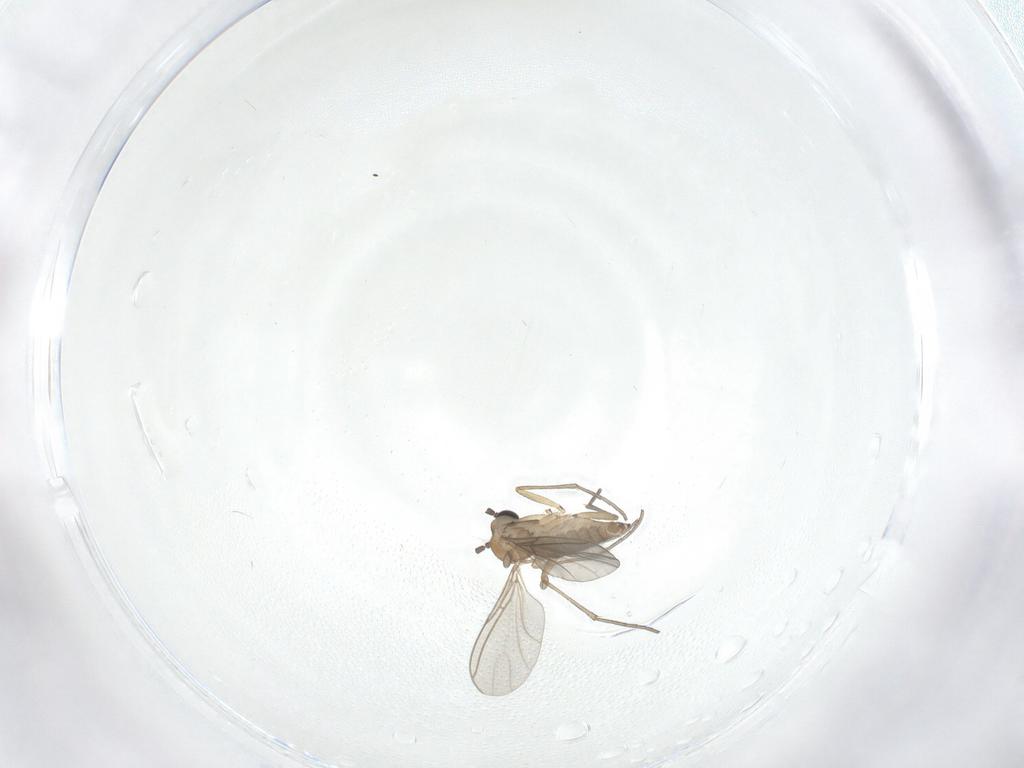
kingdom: Animalia
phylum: Arthropoda
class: Insecta
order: Diptera
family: Sciaridae
